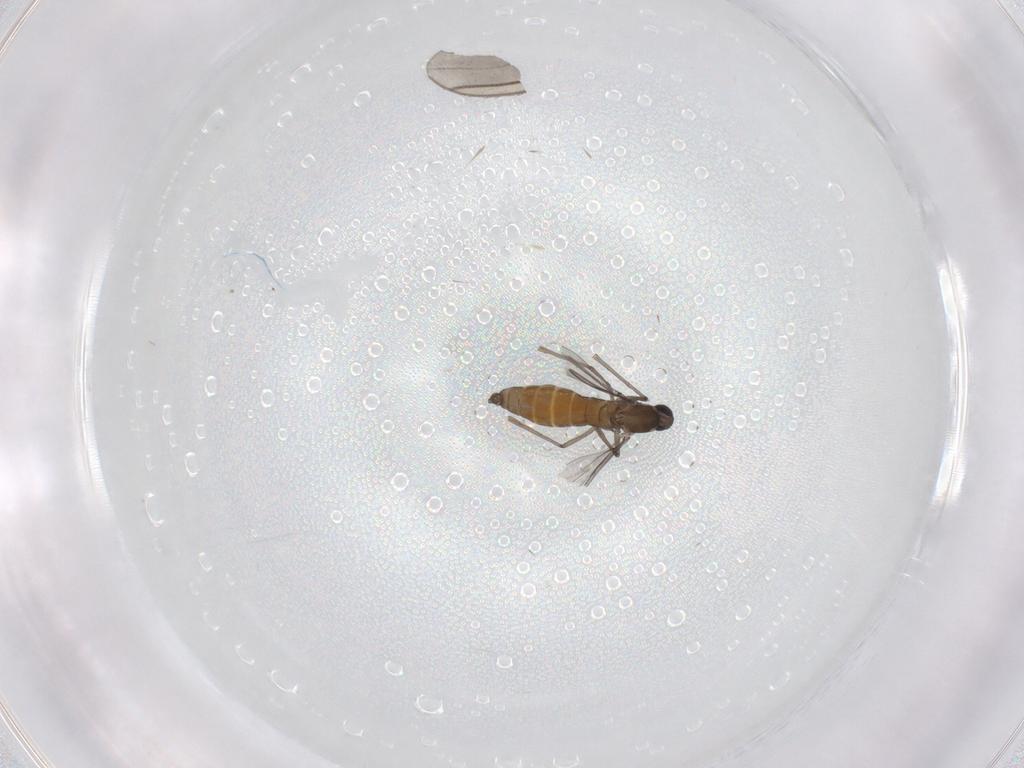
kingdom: Animalia
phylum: Arthropoda
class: Insecta
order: Diptera
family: Cecidomyiidae
